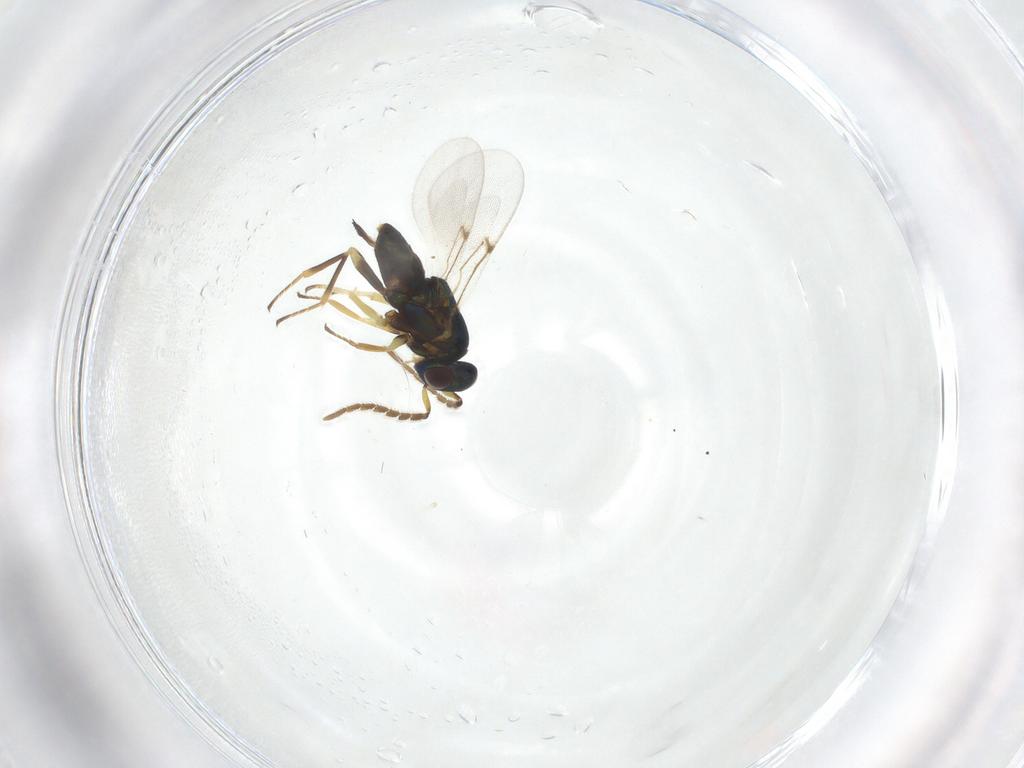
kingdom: Animalia
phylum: Arthropoda
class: Insecta
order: Hymenoptera
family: Encyrtidae
